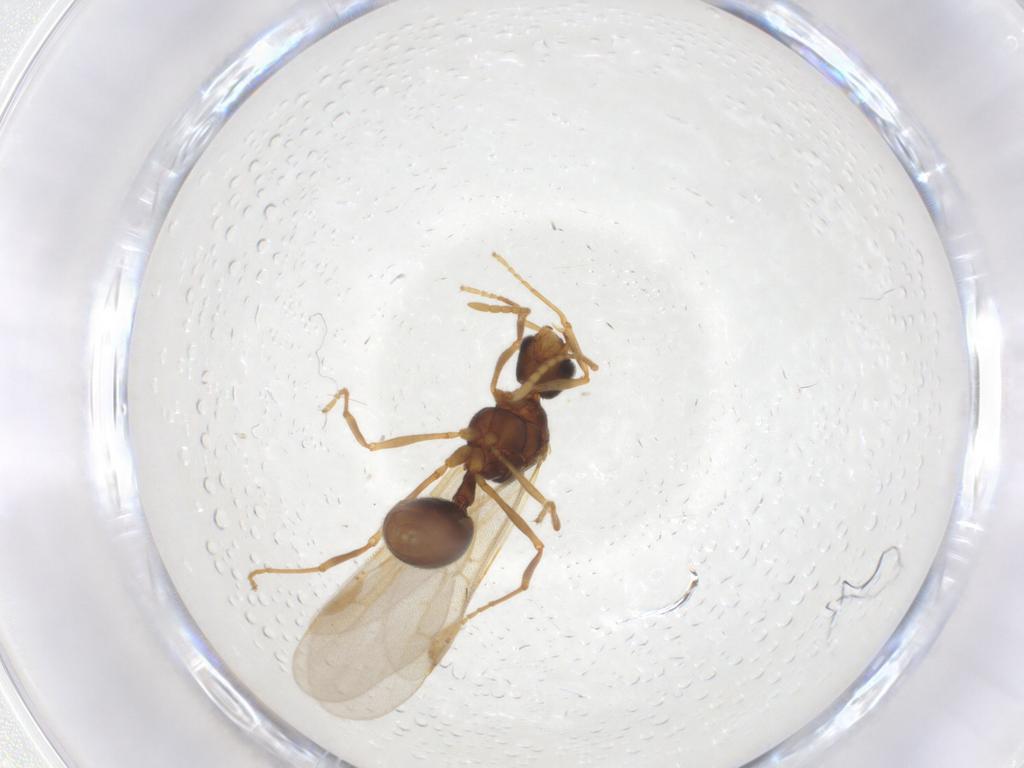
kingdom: Animalia
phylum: Arthropoda
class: Insecta
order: Hymenoptera
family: Formicidae
